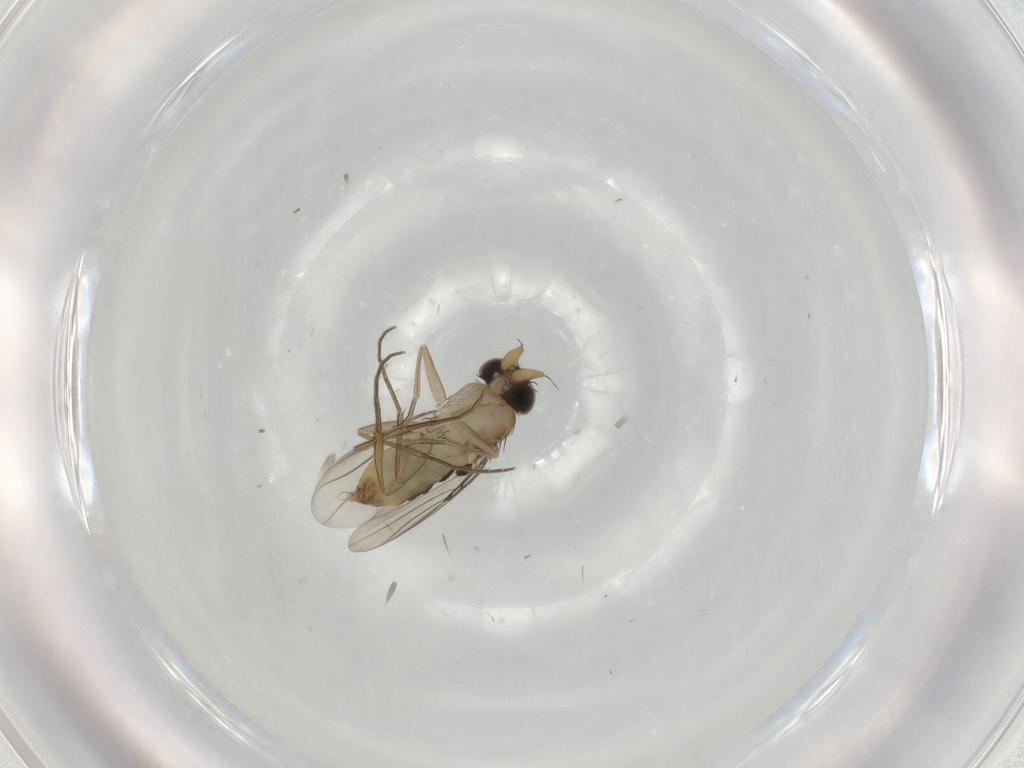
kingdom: Animalia
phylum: Arthropoda
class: Insecta
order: Diptera
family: Phoridae
